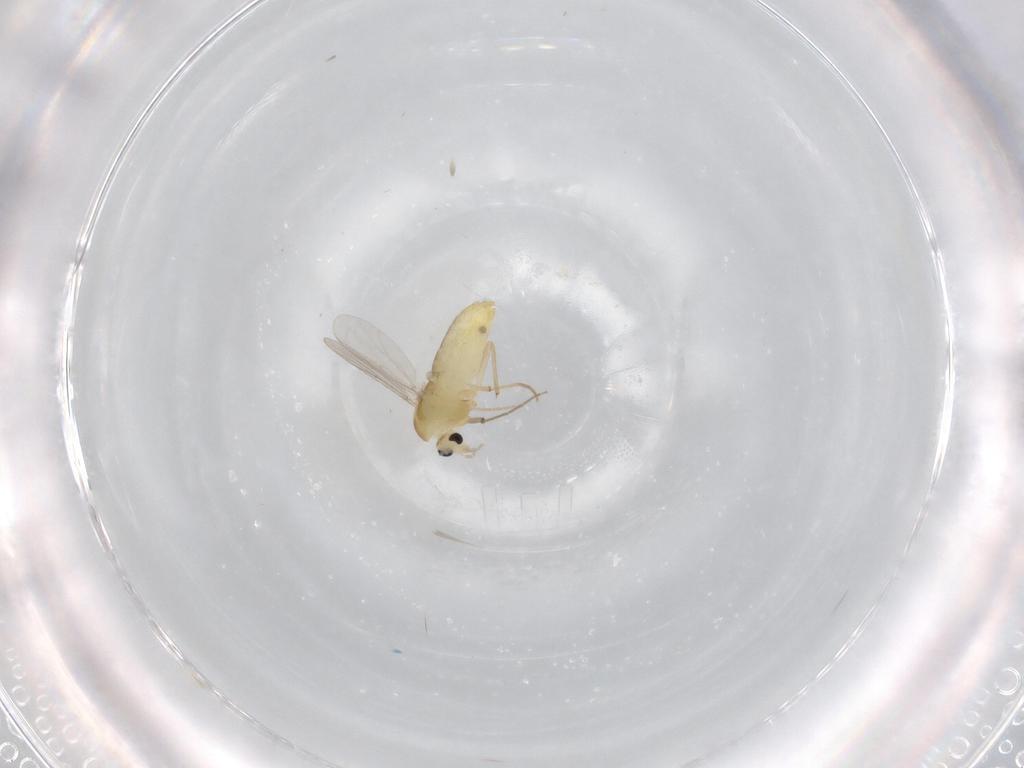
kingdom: Animalia
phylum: Arthropoda
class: Insecta
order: Diptera
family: Chironomidae
